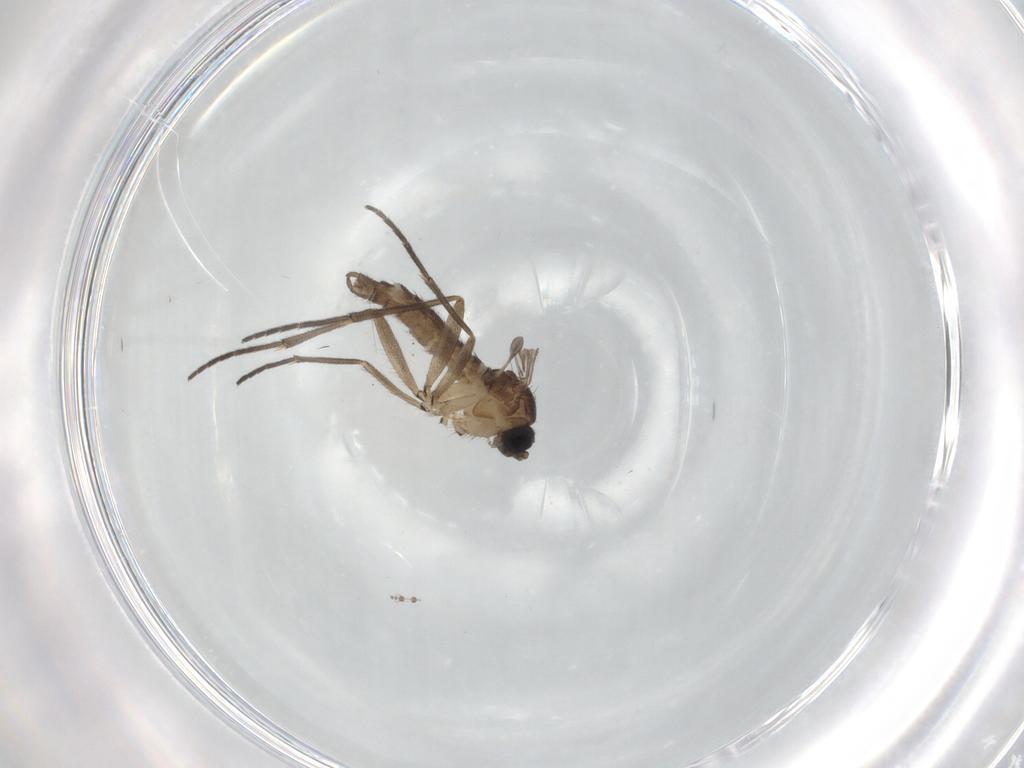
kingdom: Animalia
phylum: Arthropoda
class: Insecta
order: Diptera
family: Sciaridae
